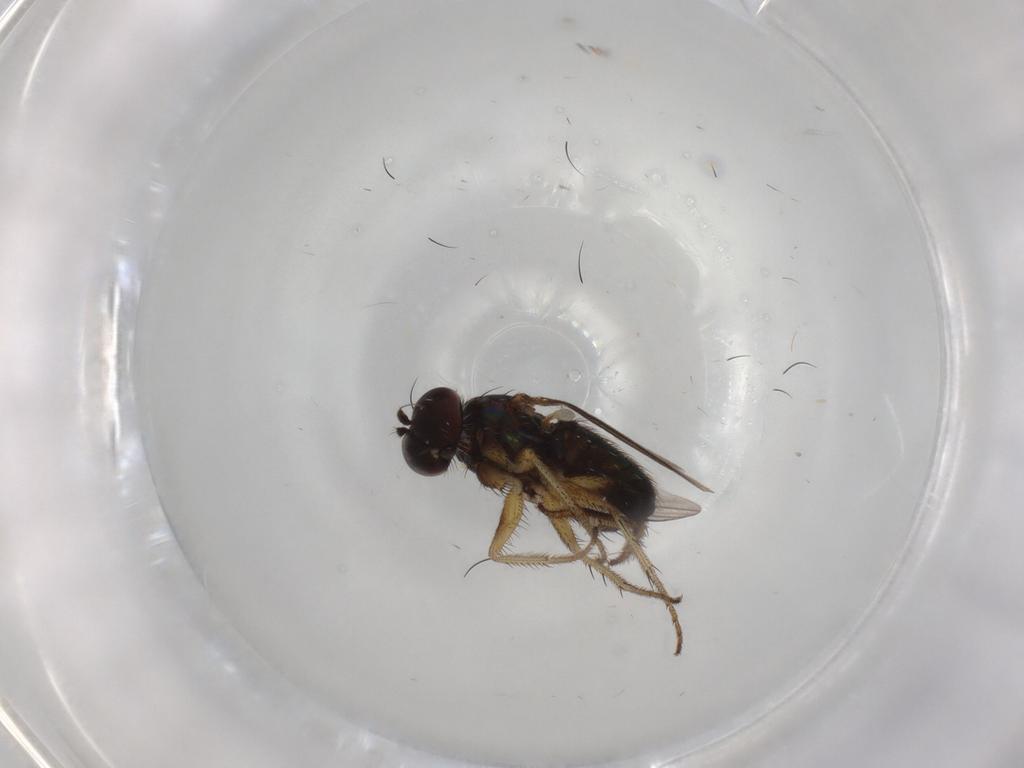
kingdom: Animalia
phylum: Arthropoda
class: Insecta
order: Diptera
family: Dolichopodidae
